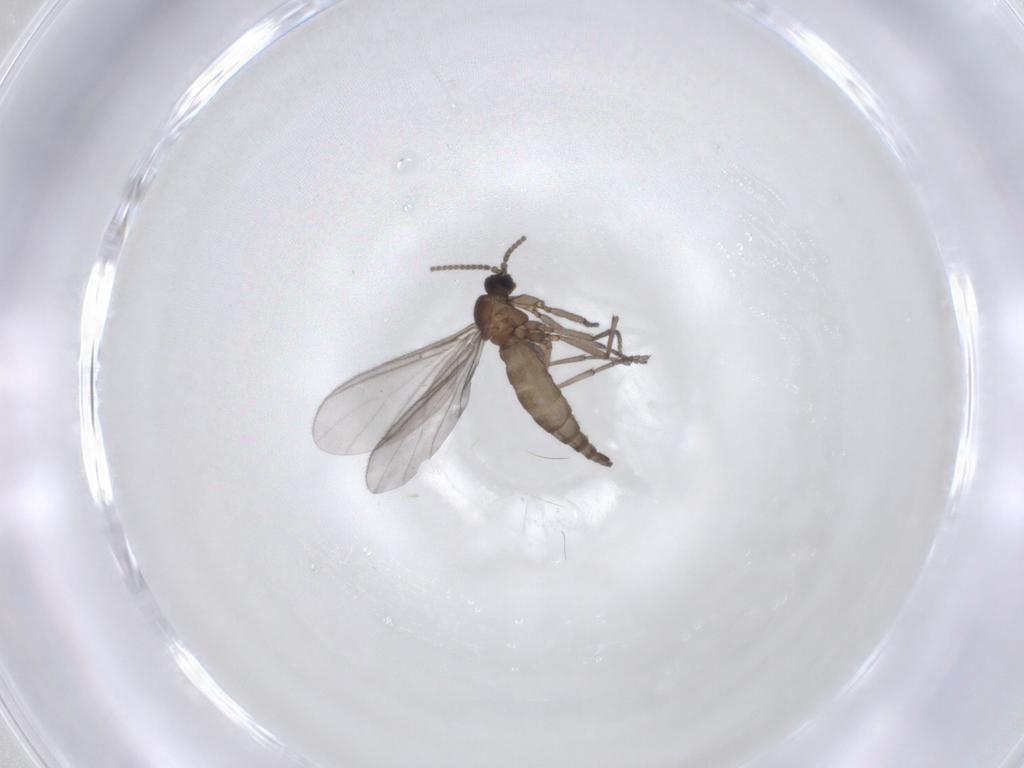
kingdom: Animalia
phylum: Arthropoda
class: Insecta
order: Diptera
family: Sciaridae
